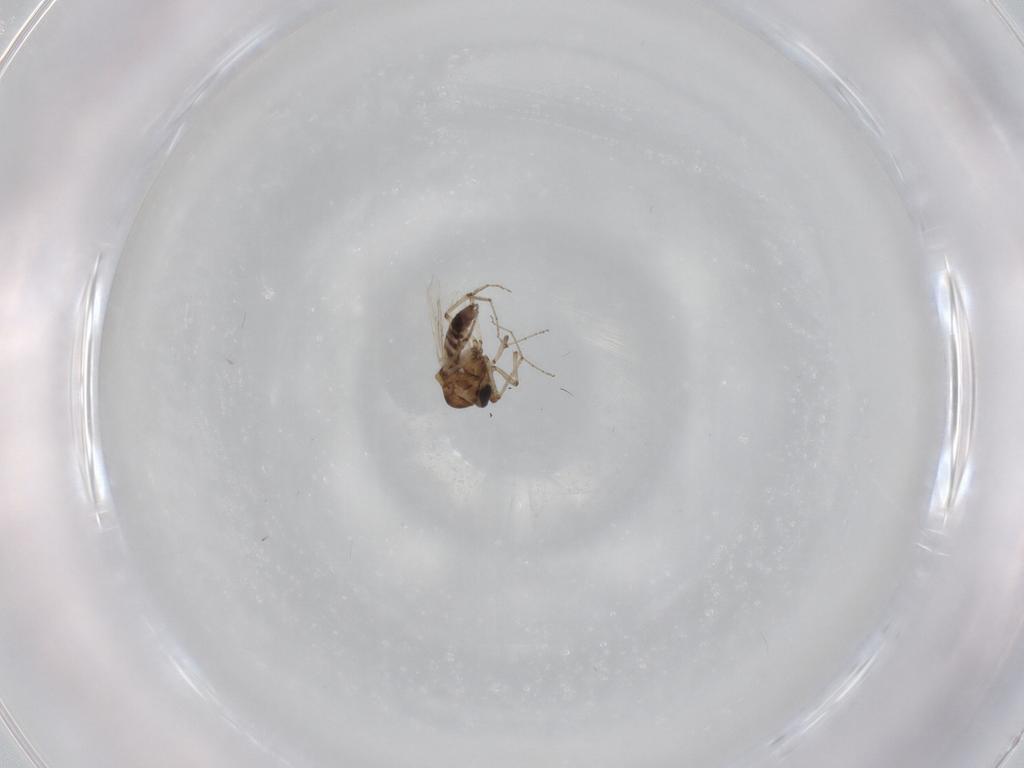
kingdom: Animalia
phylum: Arthropoda
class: Insecta
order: Diptera
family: Ceratopogonidae
